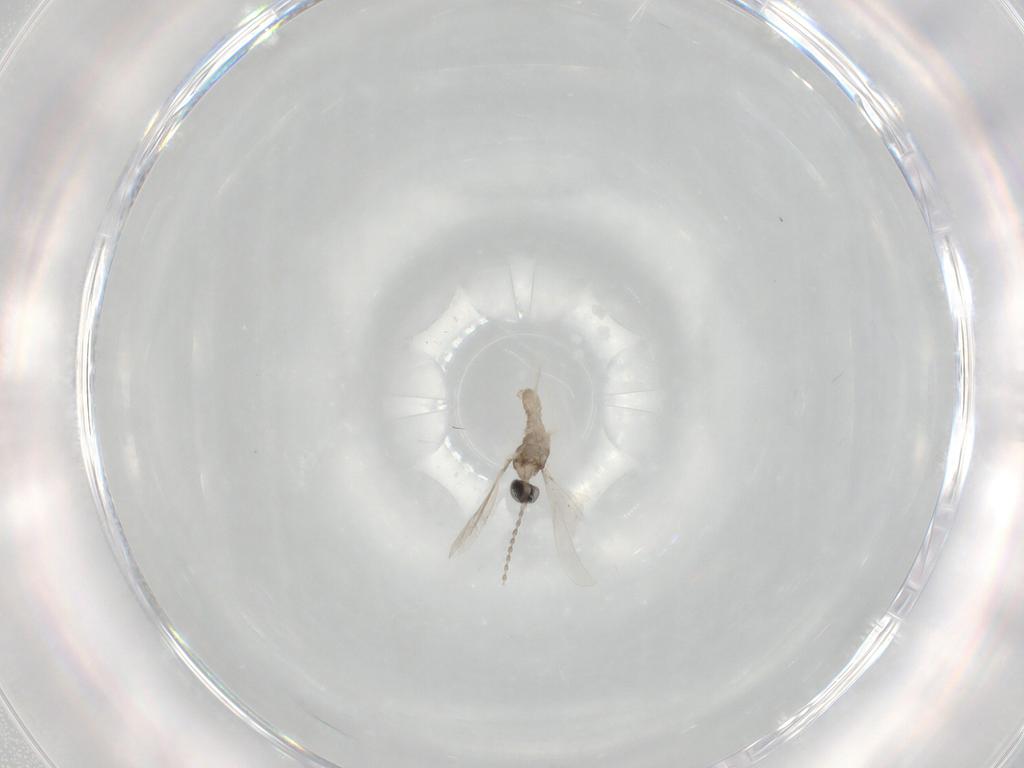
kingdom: Animalia
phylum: Arthropoda
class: Insecta
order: Diptera
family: Cecidomyiidae
